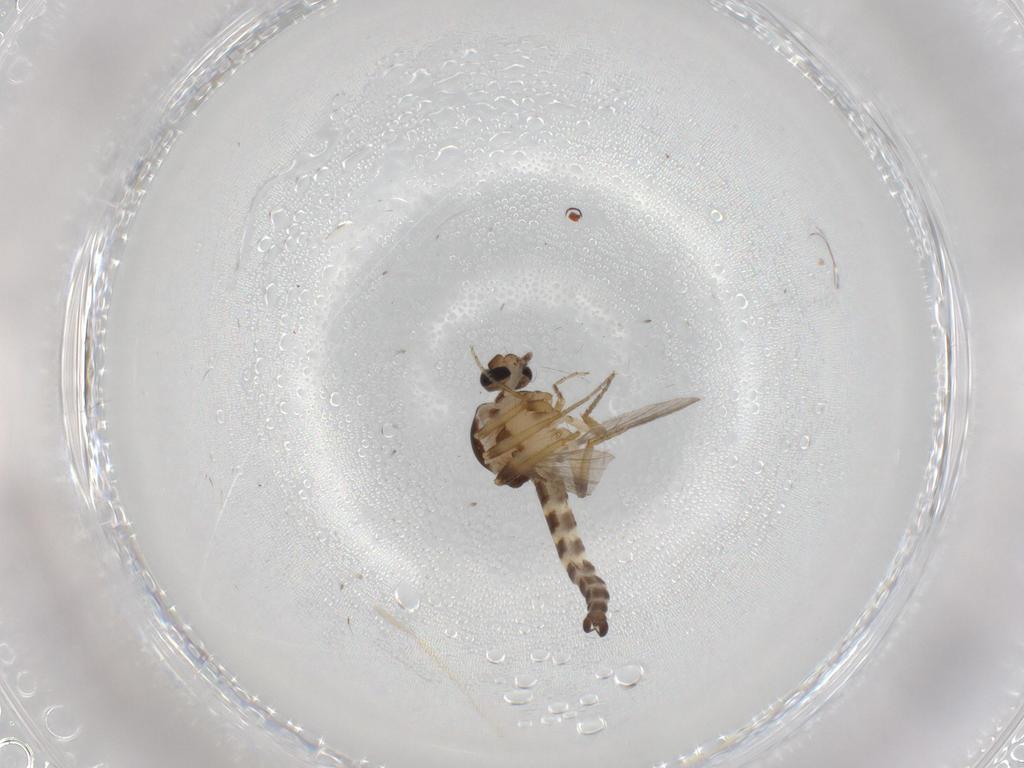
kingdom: Animalia
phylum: Arthropoda
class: Insecta
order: Diptera
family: Ceratopogonidae
